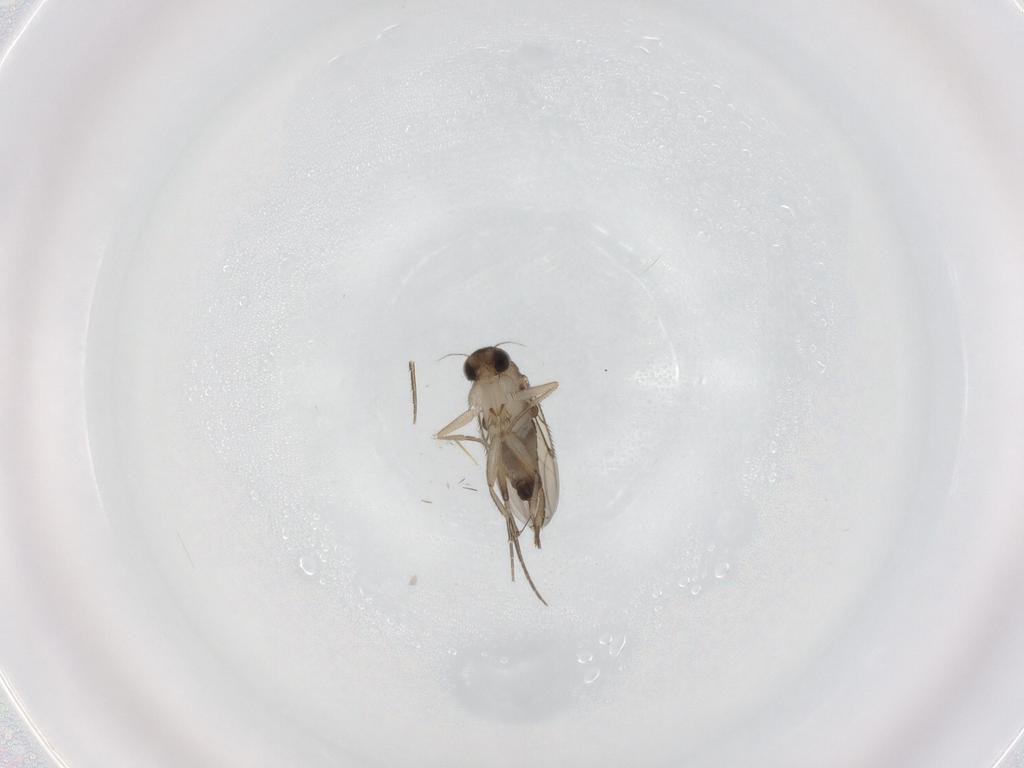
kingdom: Animalia
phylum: Arthropoda
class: Insecta
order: Diptera
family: Phoridae
